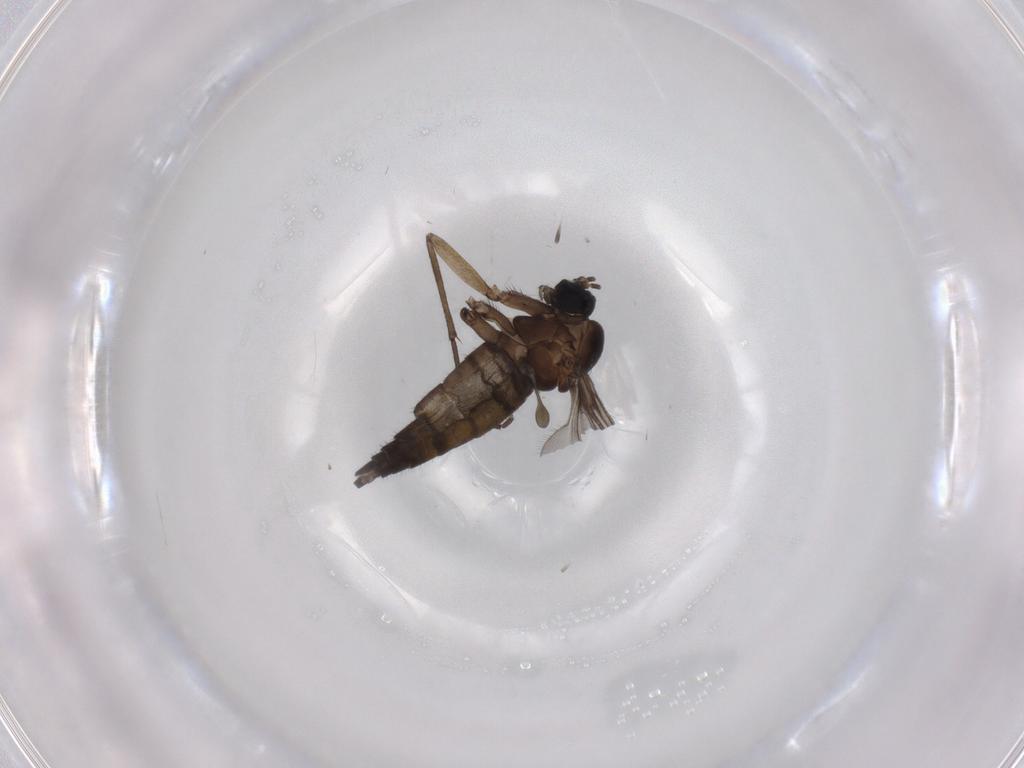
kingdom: Animalia
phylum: Arthropoda
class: Insecta
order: Diptera
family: Sciaridae
